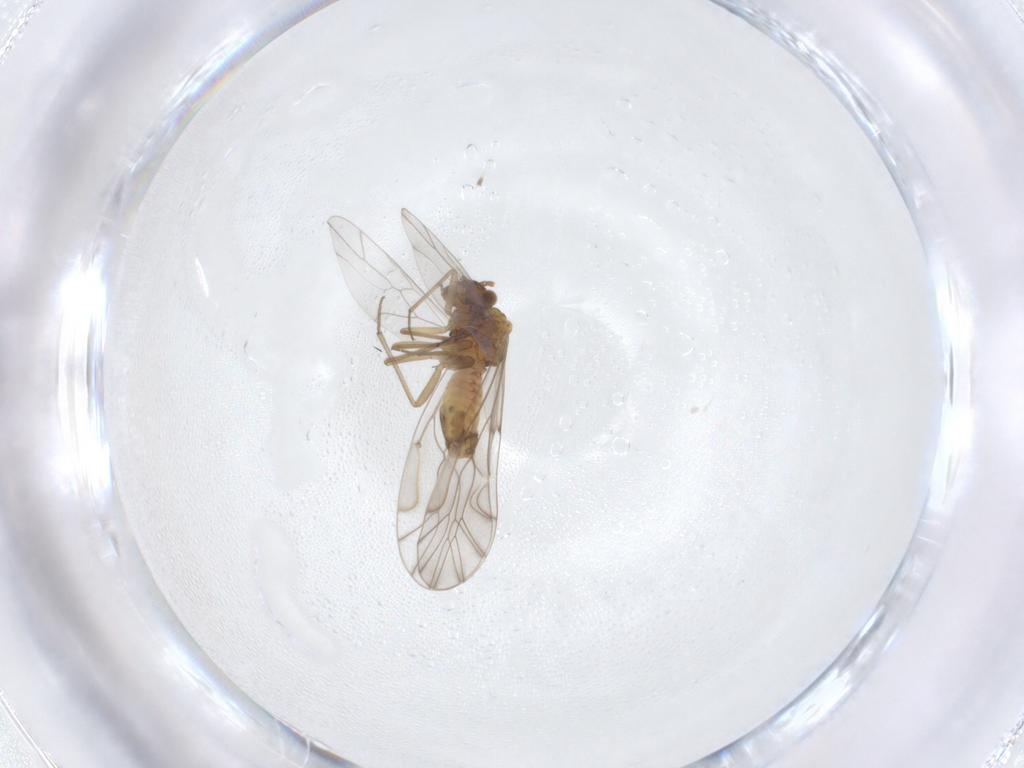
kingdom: Animalia
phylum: Arthropoda
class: Insecta
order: Psocodea
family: Lachesillidae
